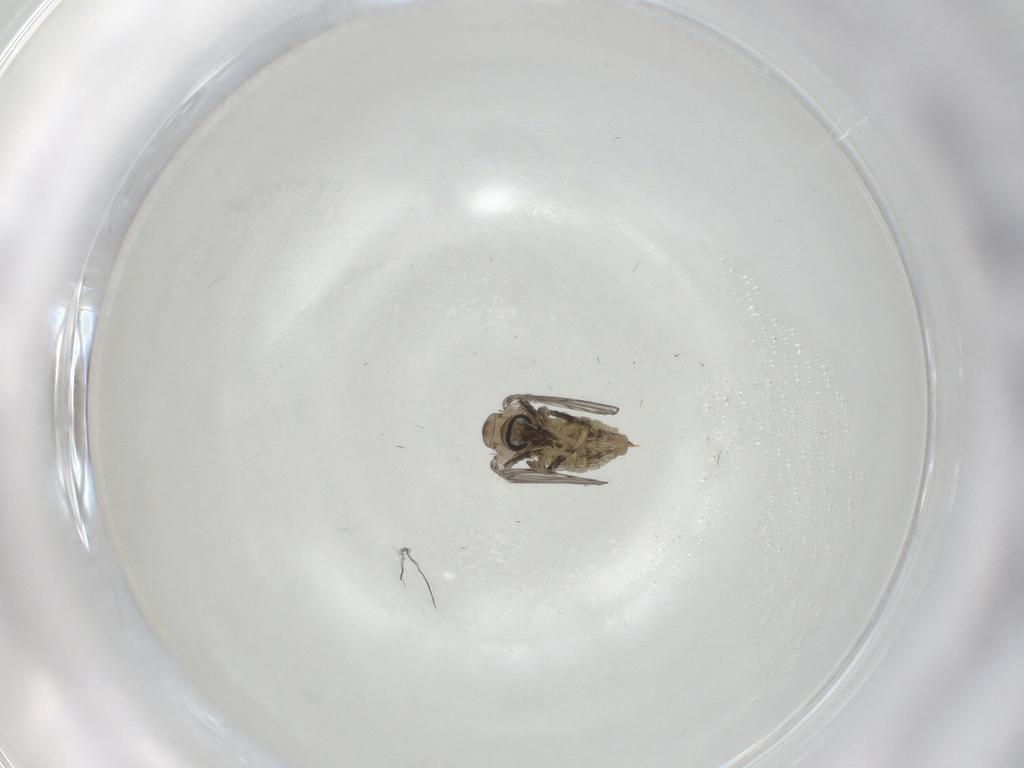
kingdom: Animalia
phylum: Arthropoda
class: Insecta
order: Diptera
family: Psychodidae
